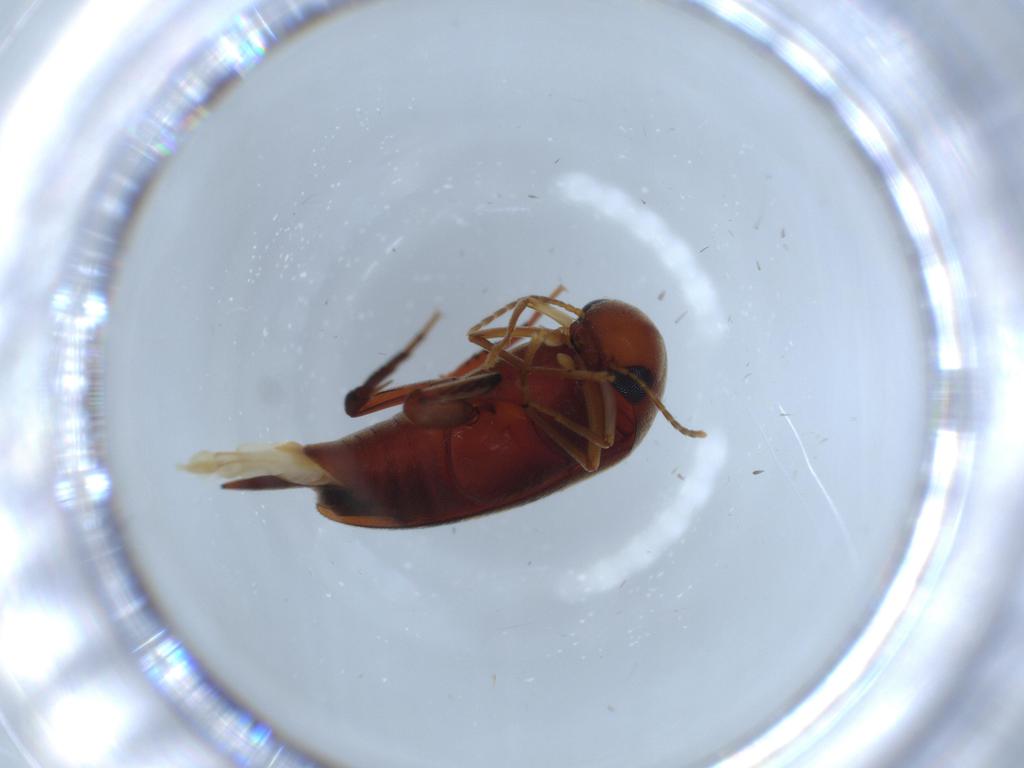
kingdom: Animalia
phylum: Arthropoda
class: Insecta
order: Coleoptera
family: Chrysomelidae
